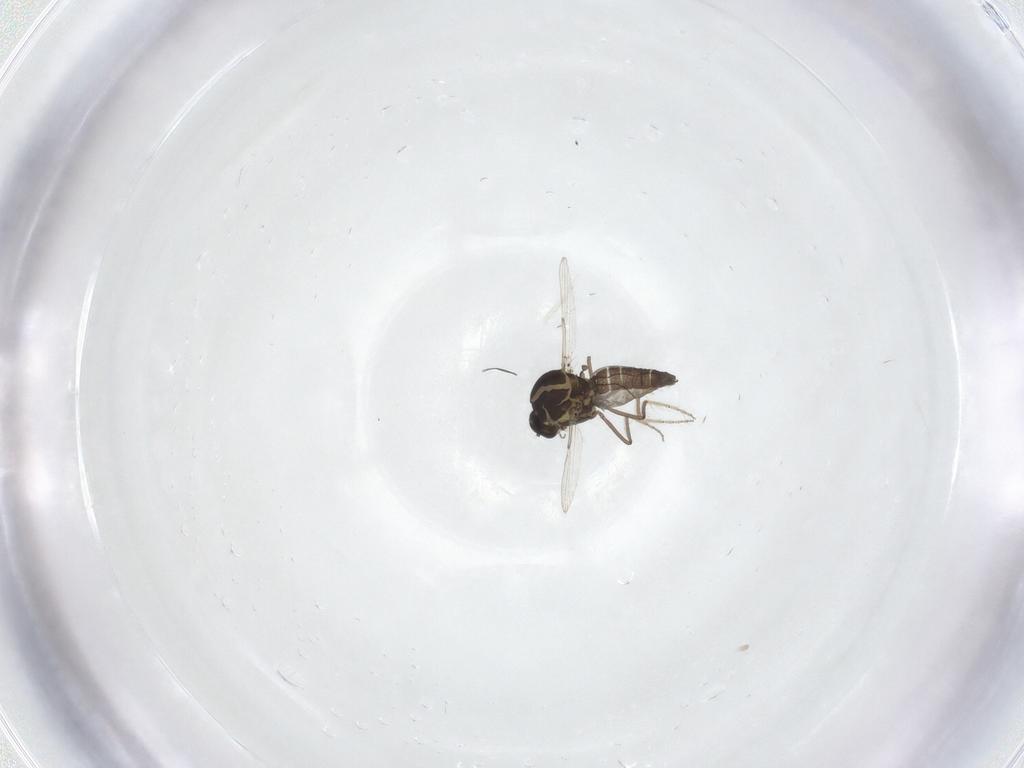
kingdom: Animalia
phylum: Arthropoda
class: Insecta
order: Diptera
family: Ceratopogonidae
